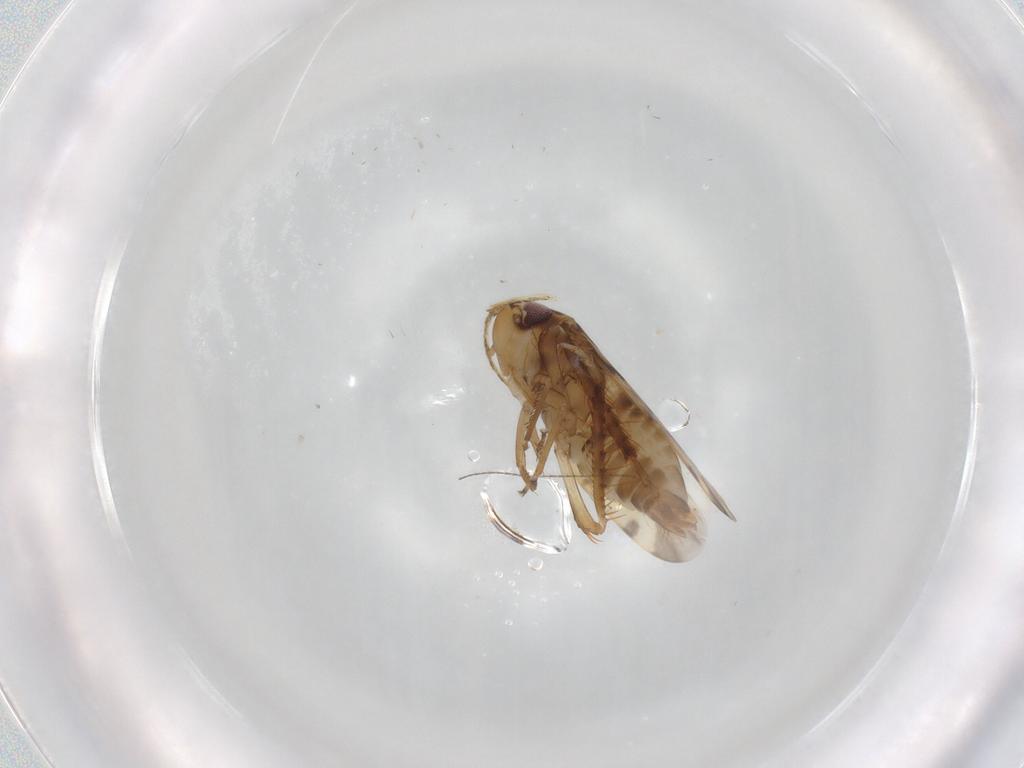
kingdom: Animalia
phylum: Arthropoda
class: Insecta
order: Hemiptera
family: Cicadellidae
